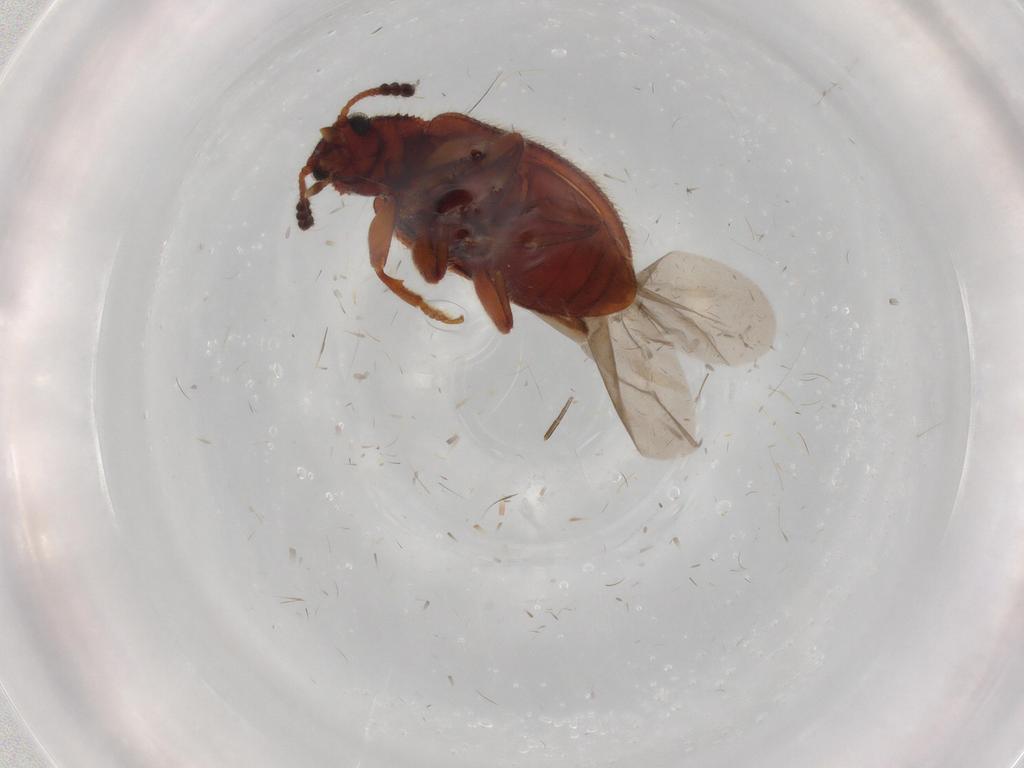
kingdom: Animalia
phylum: Arthropoda
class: Insecta
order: Coleoptera
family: Tenebrionidae
